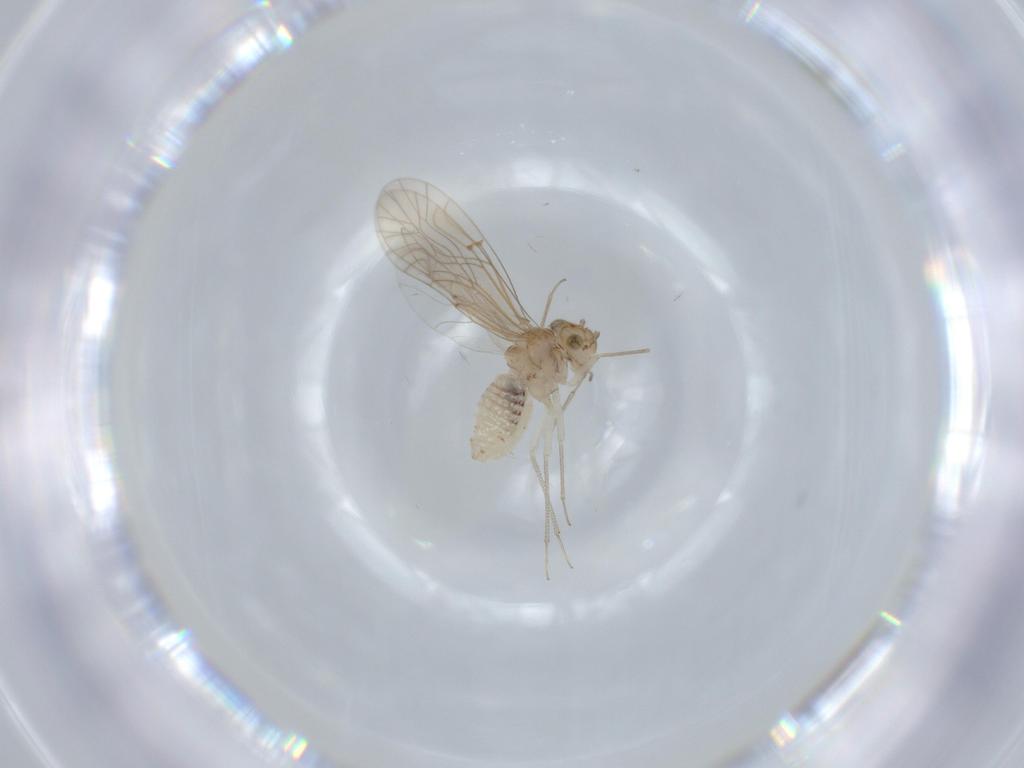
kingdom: Animalia
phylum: Arthropoda
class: Insecta
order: Psocodea
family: Lachesillidae
